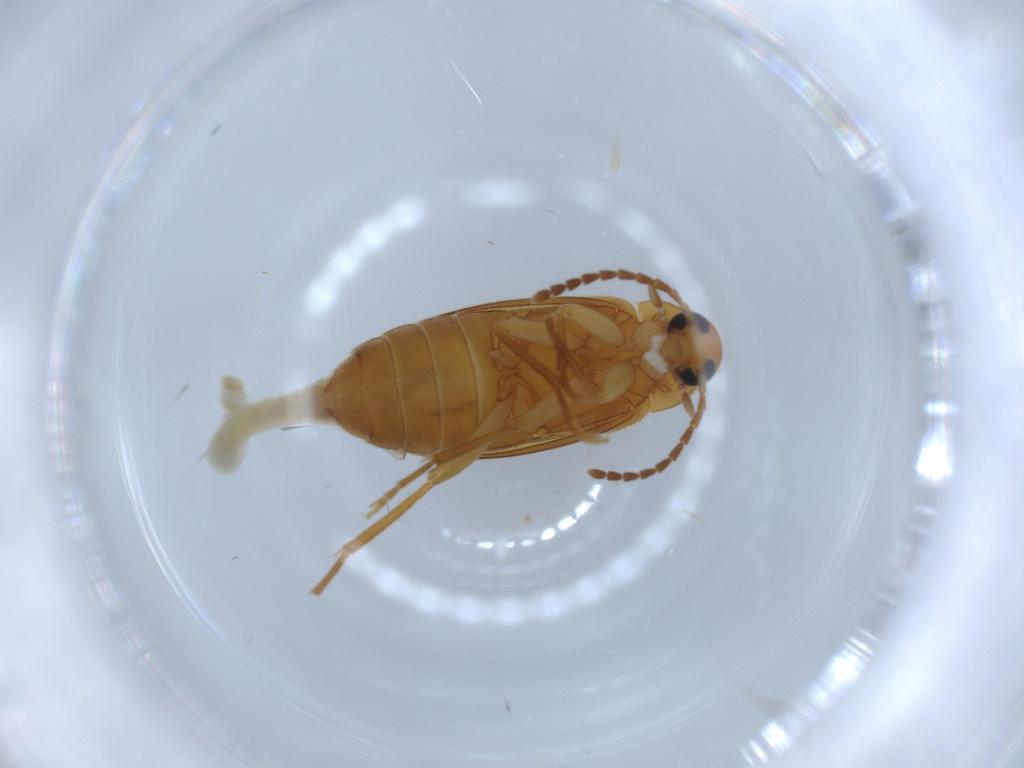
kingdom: Animalia
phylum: Arthropoda
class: Insecta
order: Coleoptera
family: Scraptiidae
